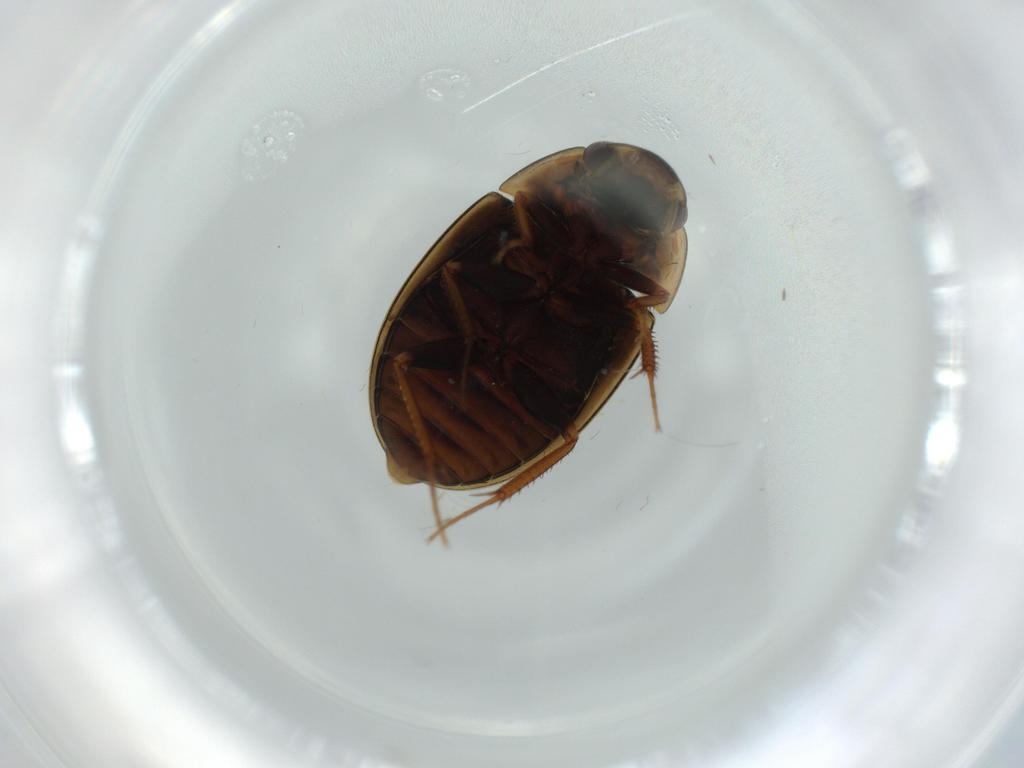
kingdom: Animalia
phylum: Arthropoda
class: Insecta
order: Coleoptera
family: Hydrophilidae
